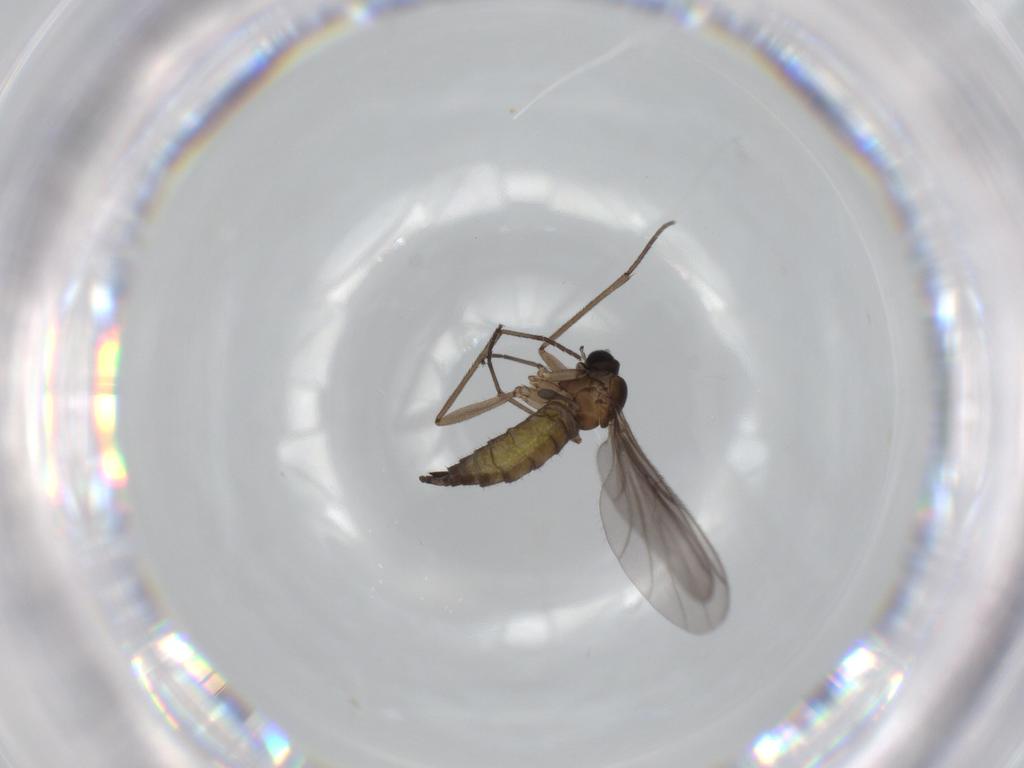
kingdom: Animalia
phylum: Arthropoda
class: Insecta
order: Diptera
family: Sciaridae
